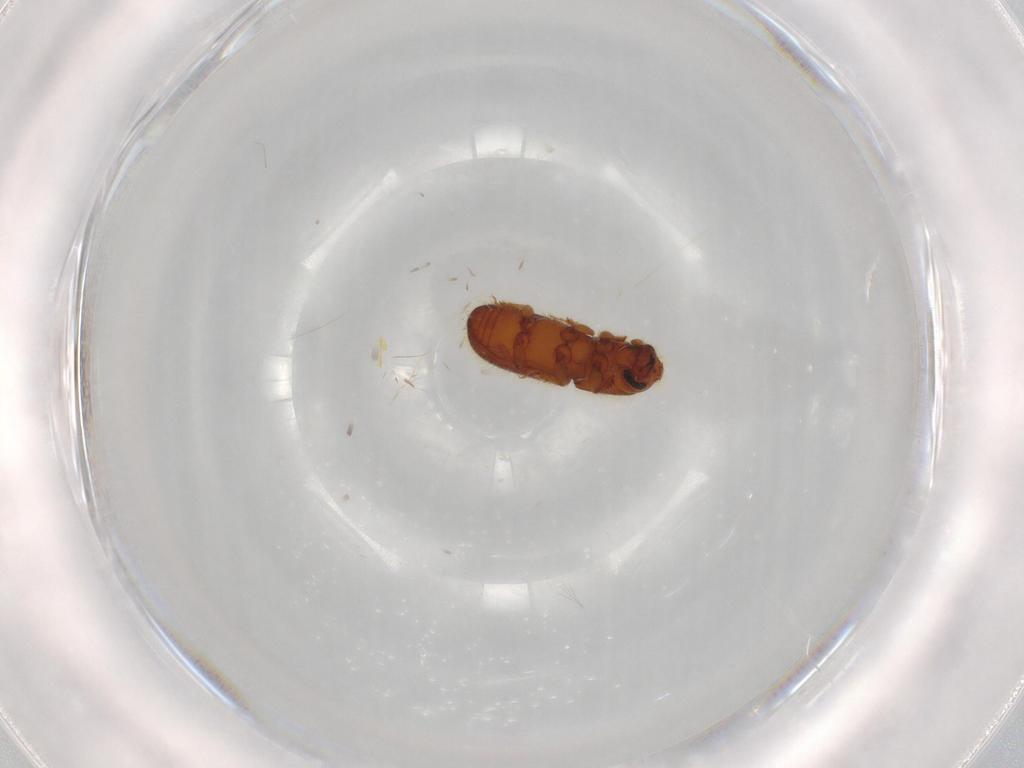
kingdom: Animalia
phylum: Arthropoda
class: Insecta
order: Coleoptera
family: Curculionidae
